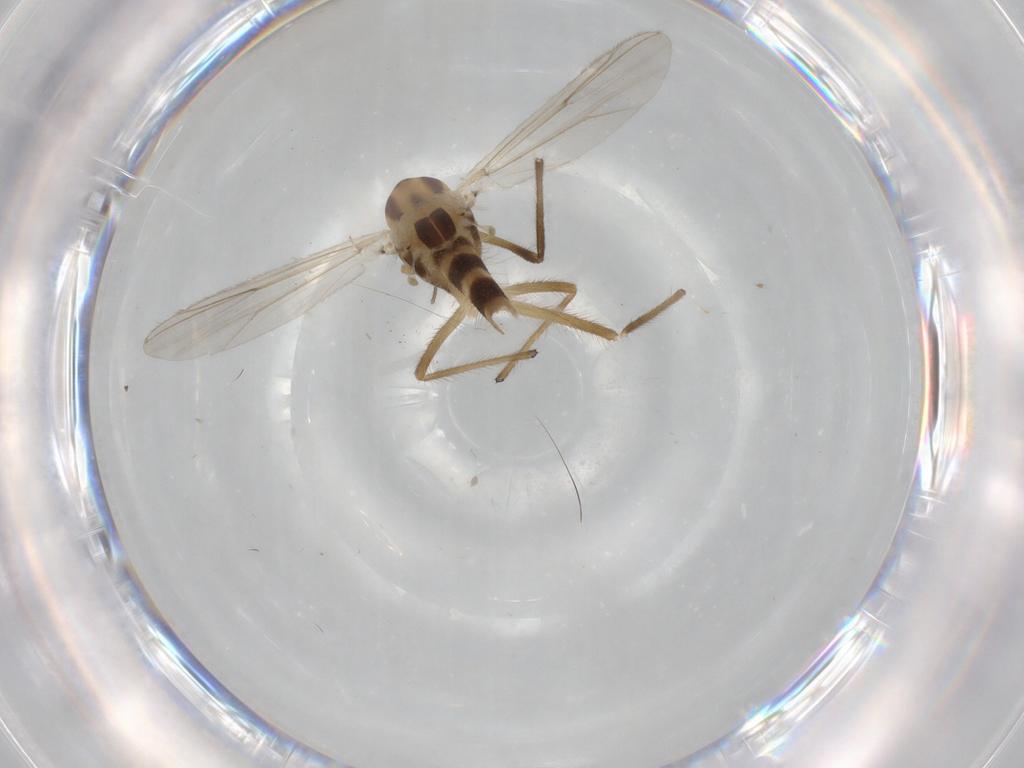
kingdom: Animalia
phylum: Arthropoda
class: Insecta
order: Diptera
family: Chironomidae
